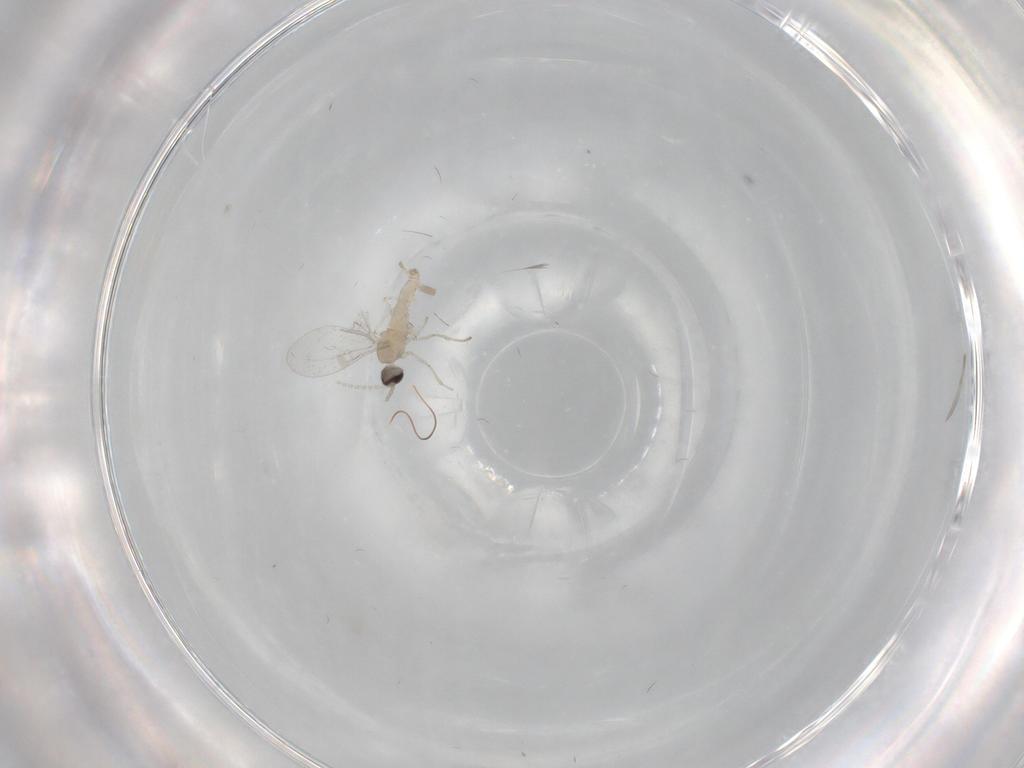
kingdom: Animalia
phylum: Arthropoda
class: Insecta
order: Diptera
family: Cecidomyiidae
